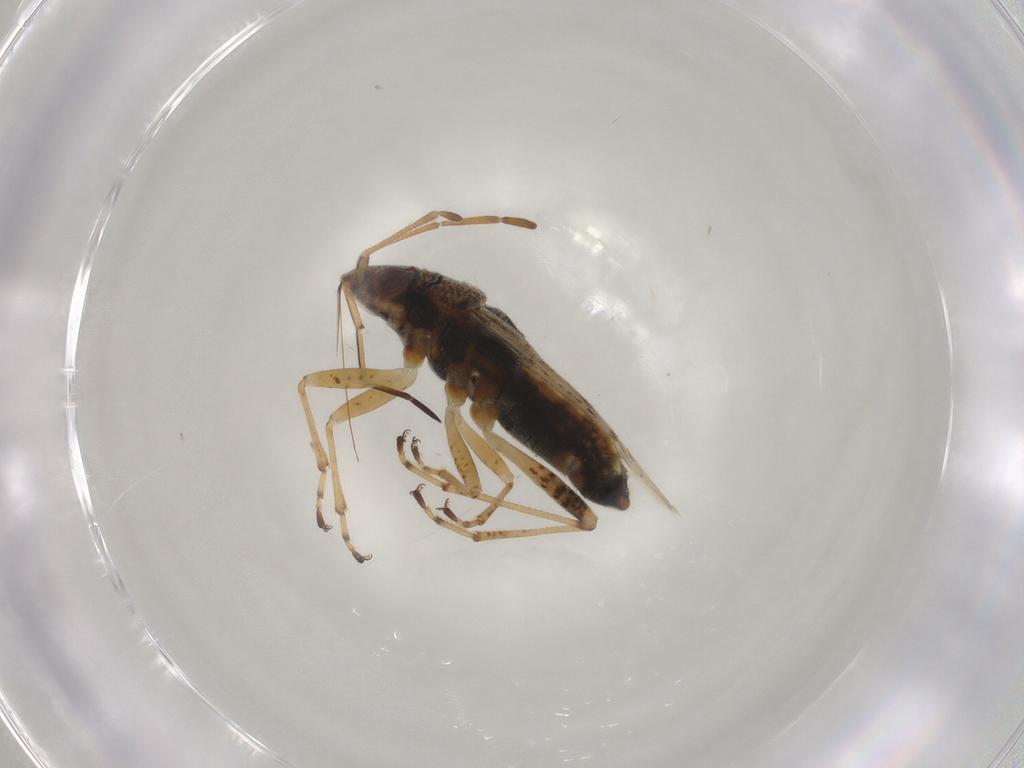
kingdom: Animalia
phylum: Arthropoda
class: Insecta
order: Hemiptera
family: Lygaeidae
